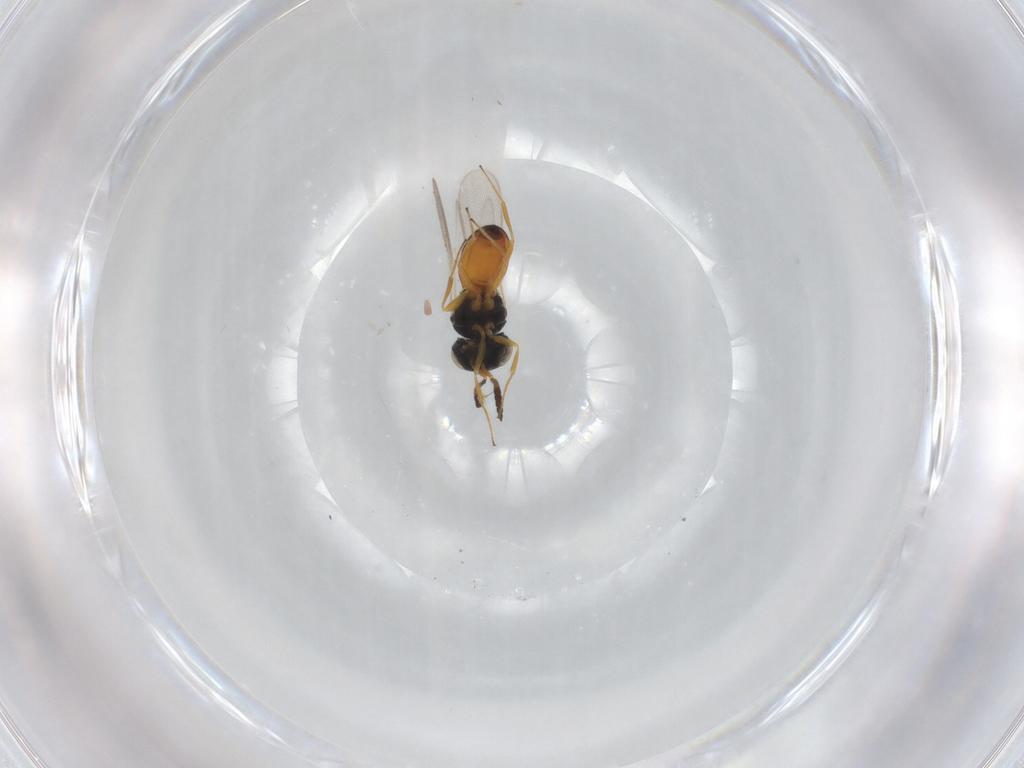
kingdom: Animalia
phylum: Arthropoda
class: Insecta
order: Hymenoptera
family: Scelionidae
